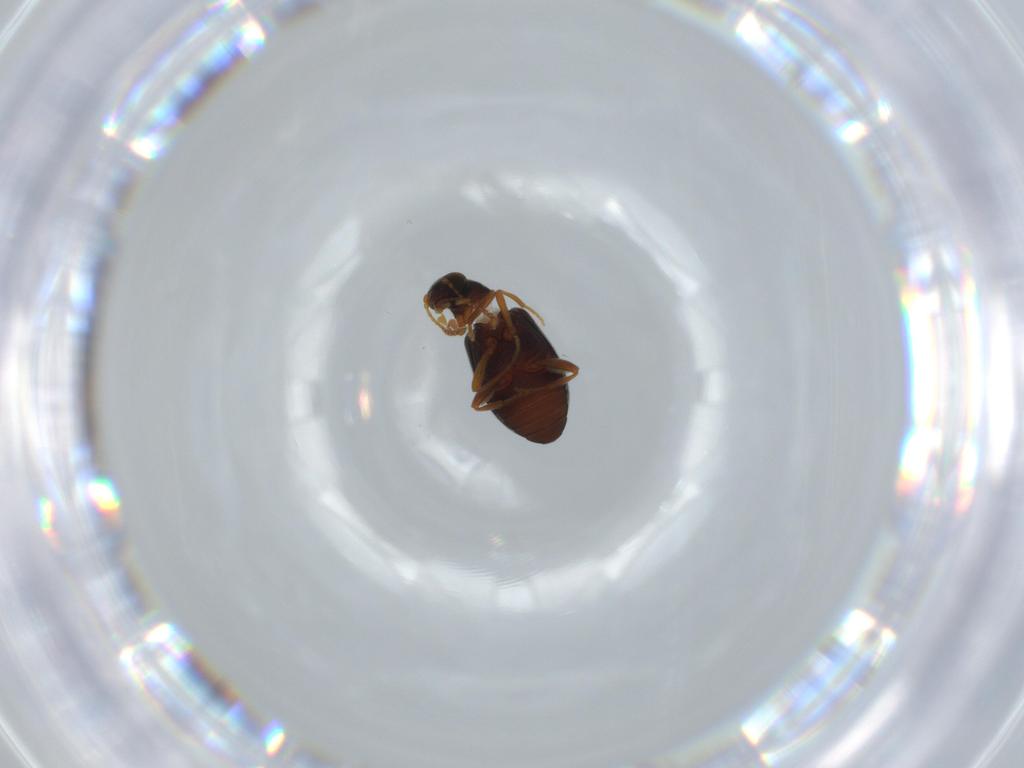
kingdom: Animalia
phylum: Arthropoda
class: Insecta
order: Coleoptera
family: Aderidae
